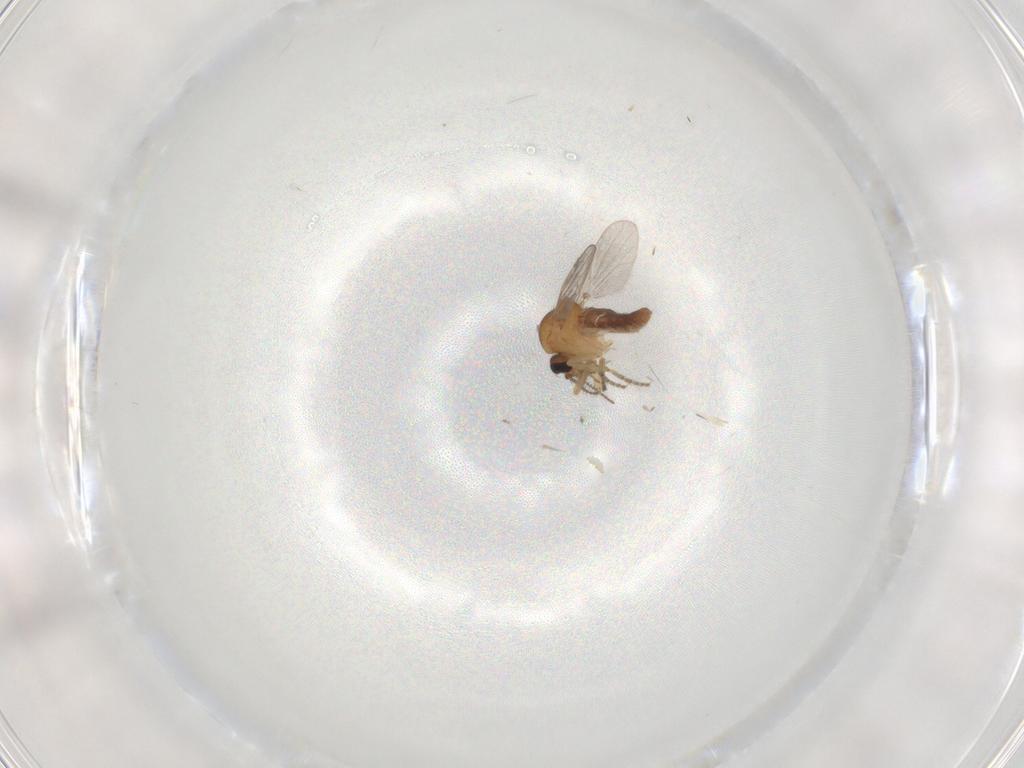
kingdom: Animalia
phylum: Arthropoda
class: Insecta
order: Diptera
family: Ceratopogonidae
